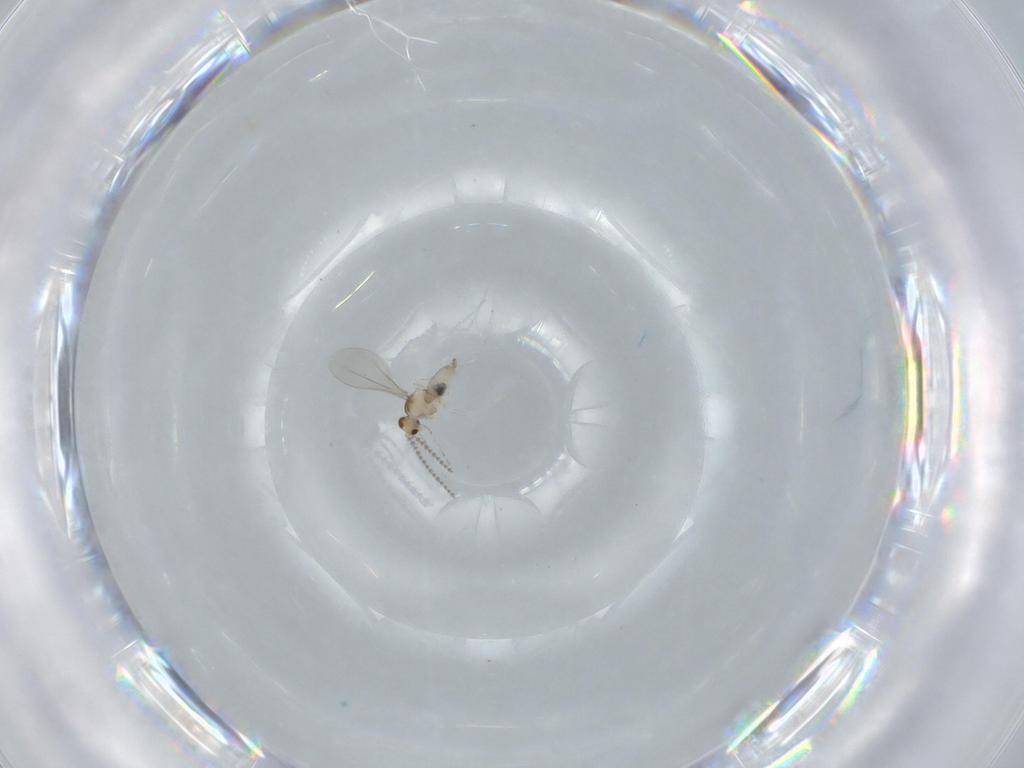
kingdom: Animalia
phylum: Arthropoda
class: Insecta
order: Diptera
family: Cecidomyiidae
